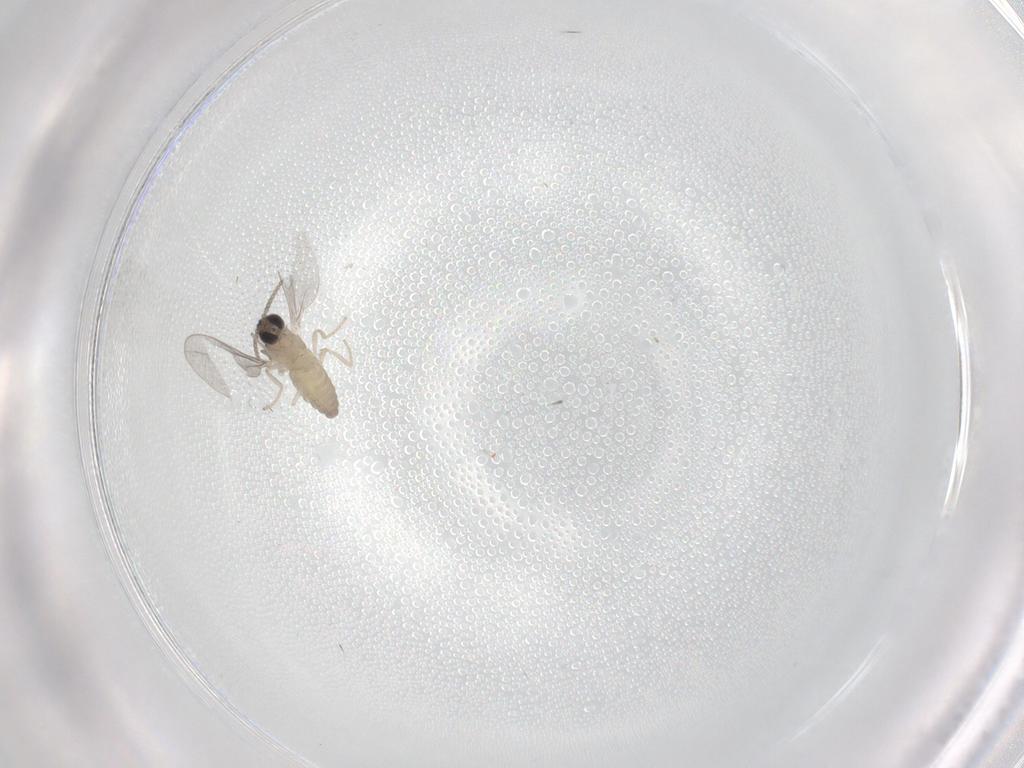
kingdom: Animalia
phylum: Arthropoda
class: Insecta
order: Diptera
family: Cecidomyiidae
